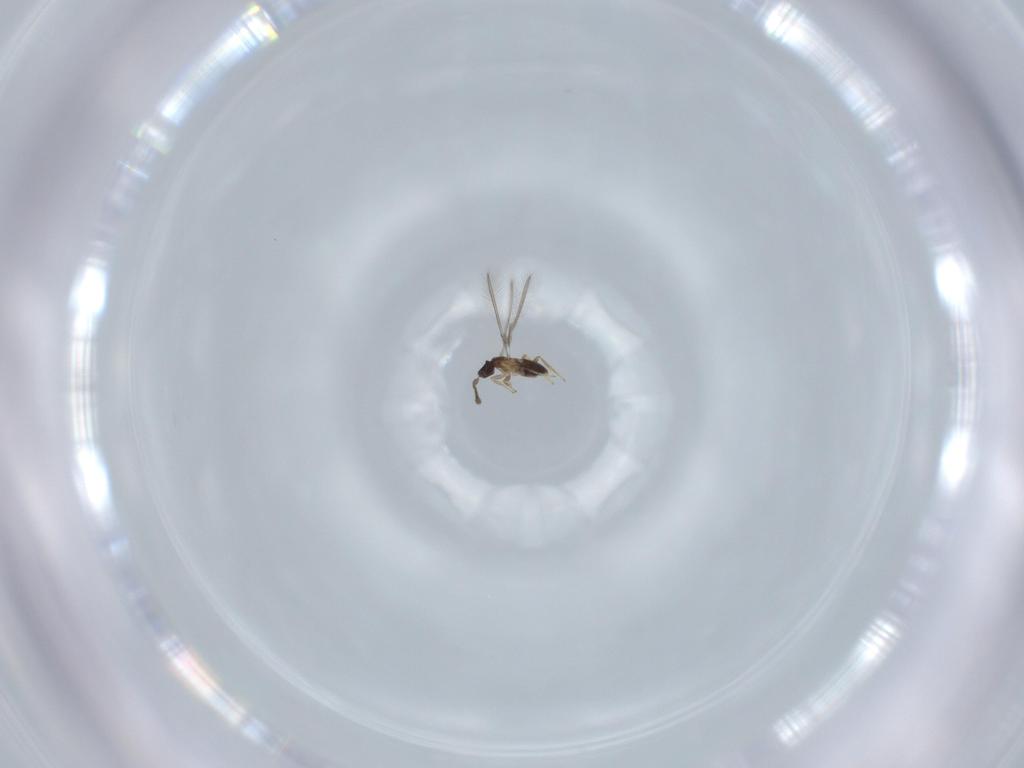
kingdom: Animalia
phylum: Arthropoda
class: Insecta
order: Hymenoptera
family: Mymaridae
